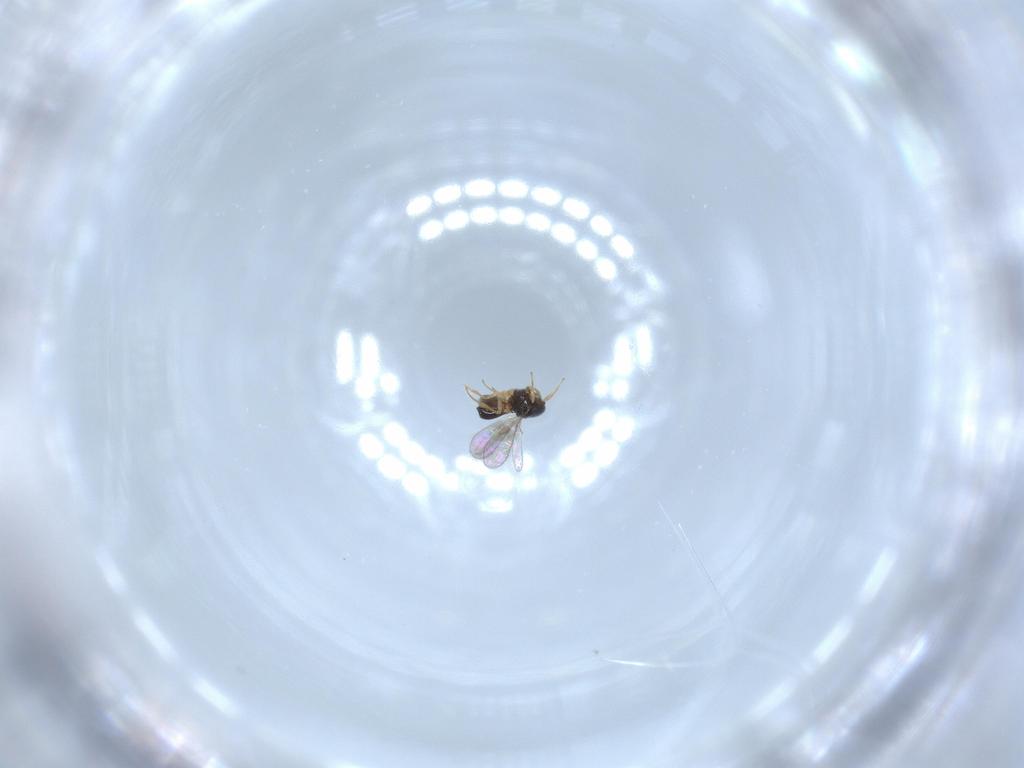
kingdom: Animalia
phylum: Arthropoda
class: Insecta
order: Hymenoptera
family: Scelionidae
